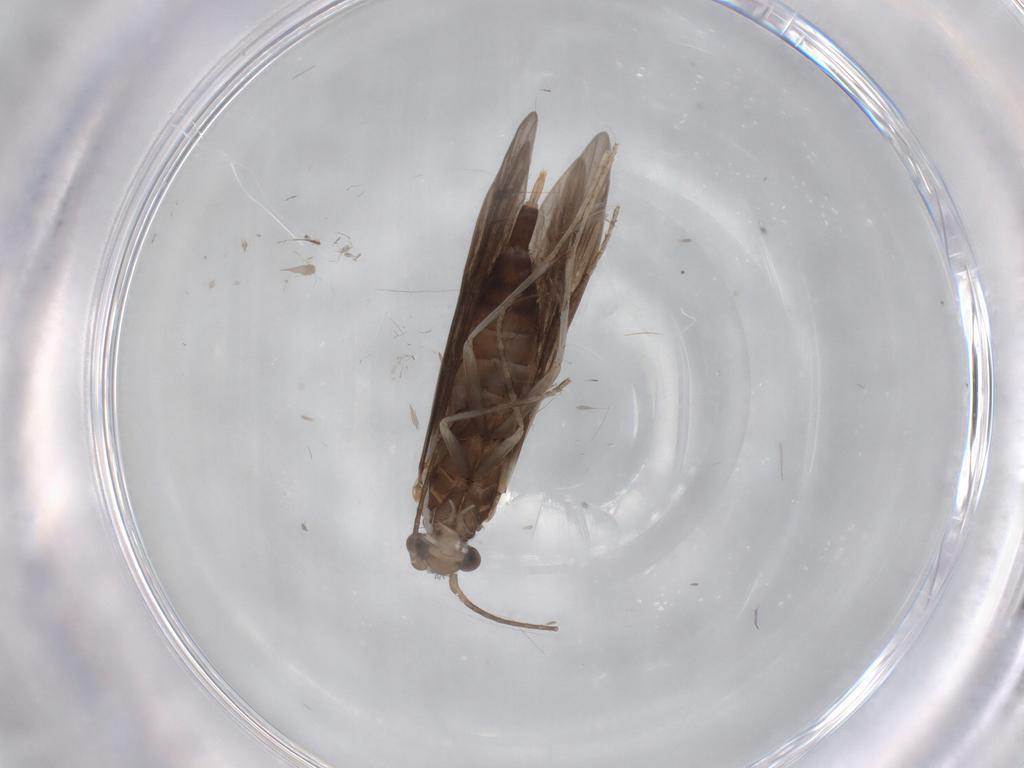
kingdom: Animalia
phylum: Arthropoda
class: Insecta
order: Trichoptera
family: Xiphocentronidae
